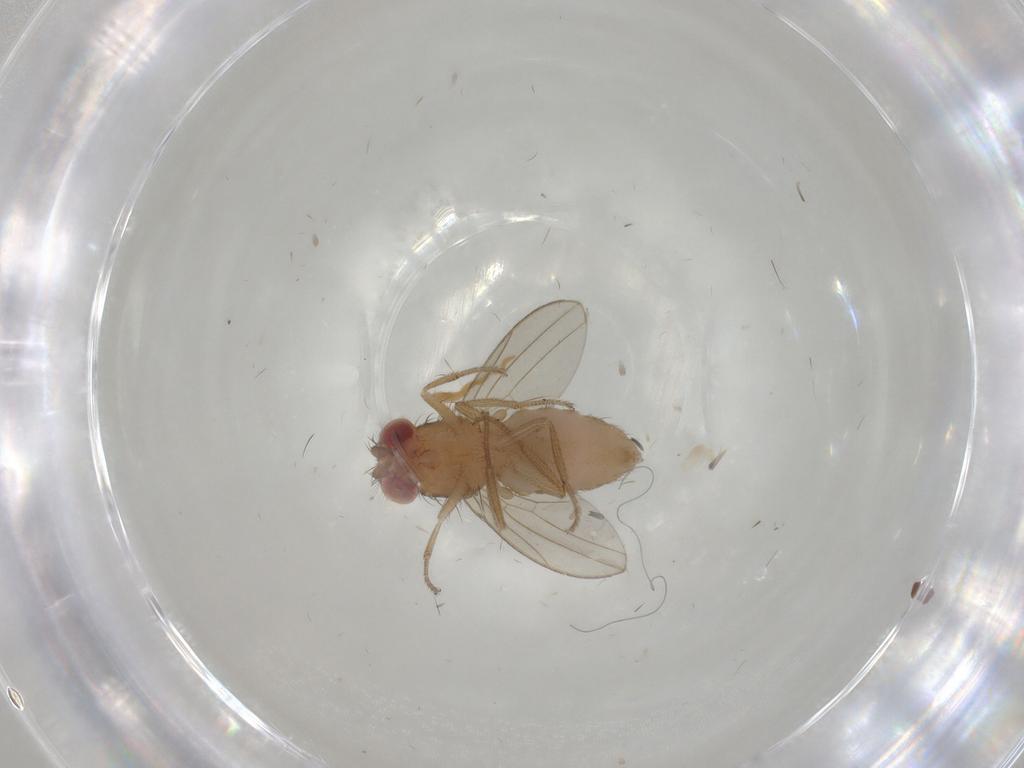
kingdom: Animalia
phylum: Arthropoda
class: Insecta
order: Diptera
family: Drosophilidae
